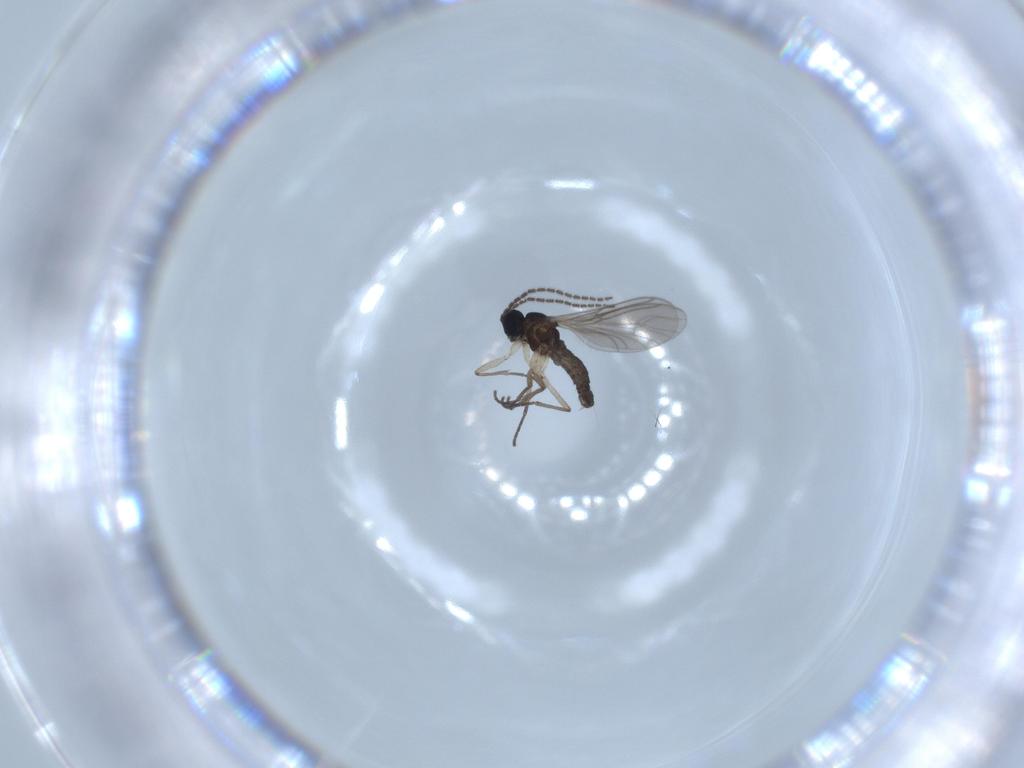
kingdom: Animalia
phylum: Arthropoda
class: Insecta
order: Diptera
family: Sciaridae
